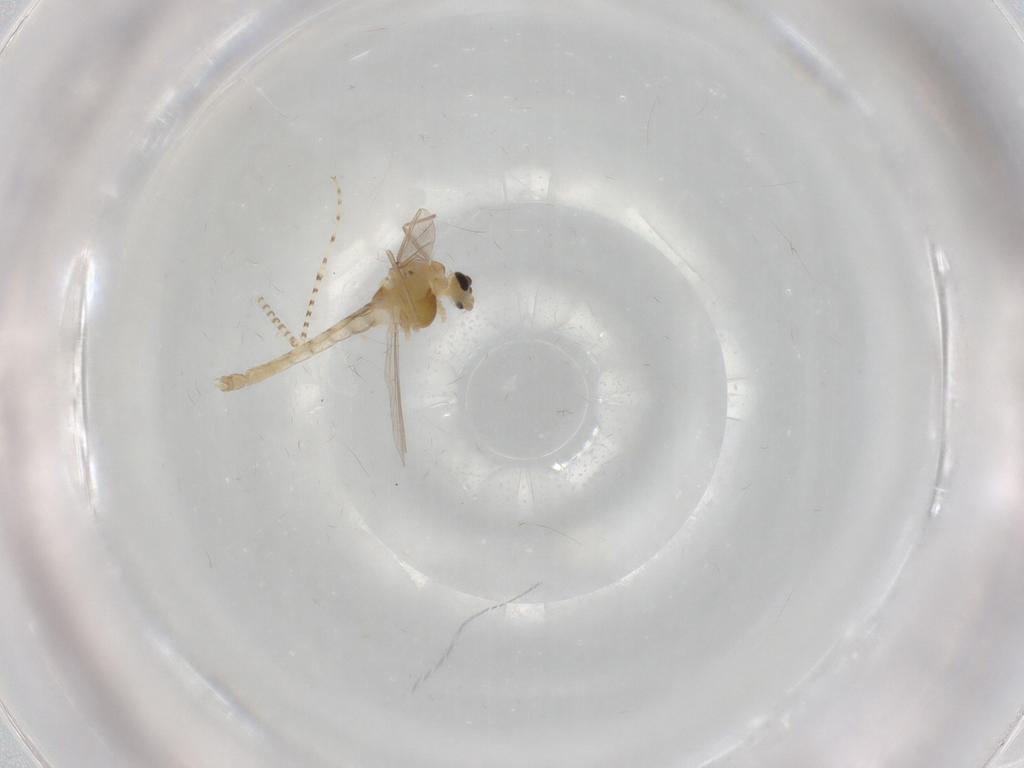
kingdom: Animalia
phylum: Arthropoda
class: Insecta
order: Diptera
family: Chironomidae
